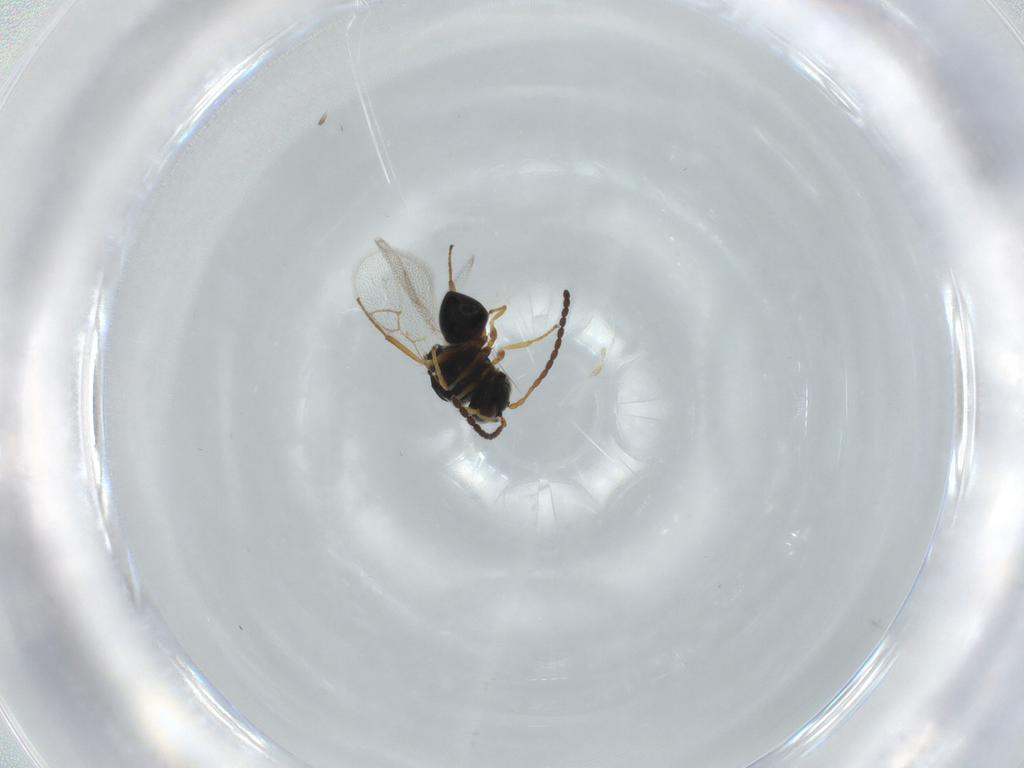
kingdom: Animalia
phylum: Arthropoda
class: Insecta
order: Hymenoptera
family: Figitidae
